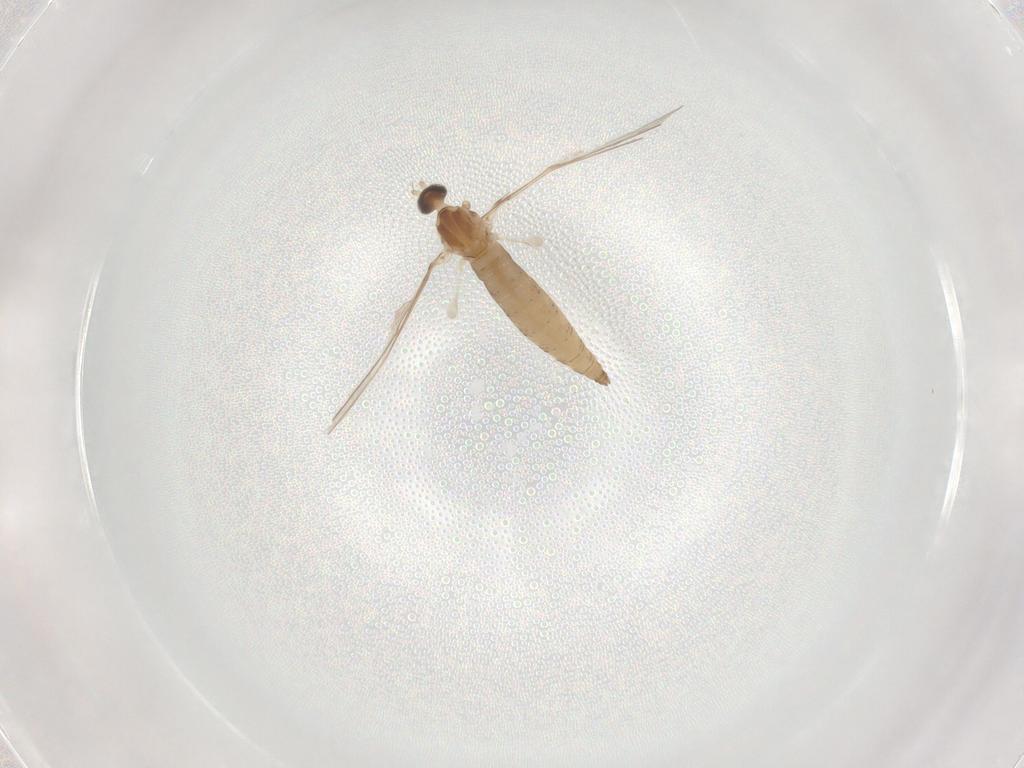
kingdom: Animalia
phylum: Arthropoda
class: Insecta
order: Diptera
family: Cecidomyiidae
